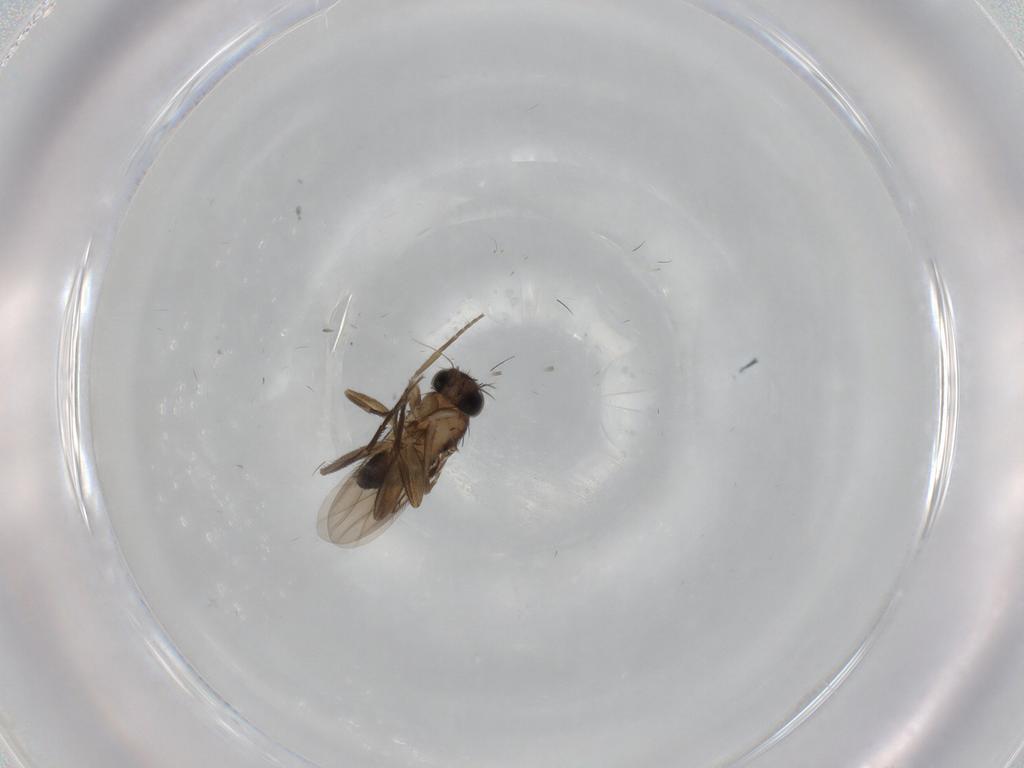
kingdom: Animalia
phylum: Arthropoda
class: Insecta
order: Diptera
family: Phoridae
